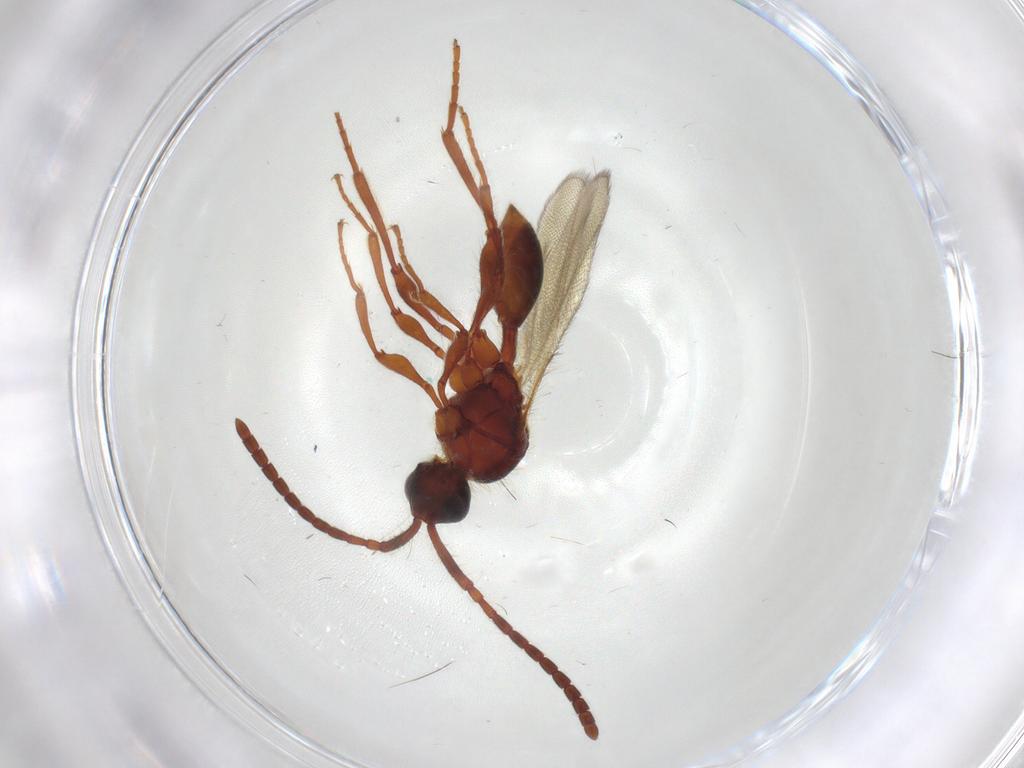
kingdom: Animalia
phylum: Arthropoda
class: Insecta
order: Hymenoptera
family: Diapriidae
